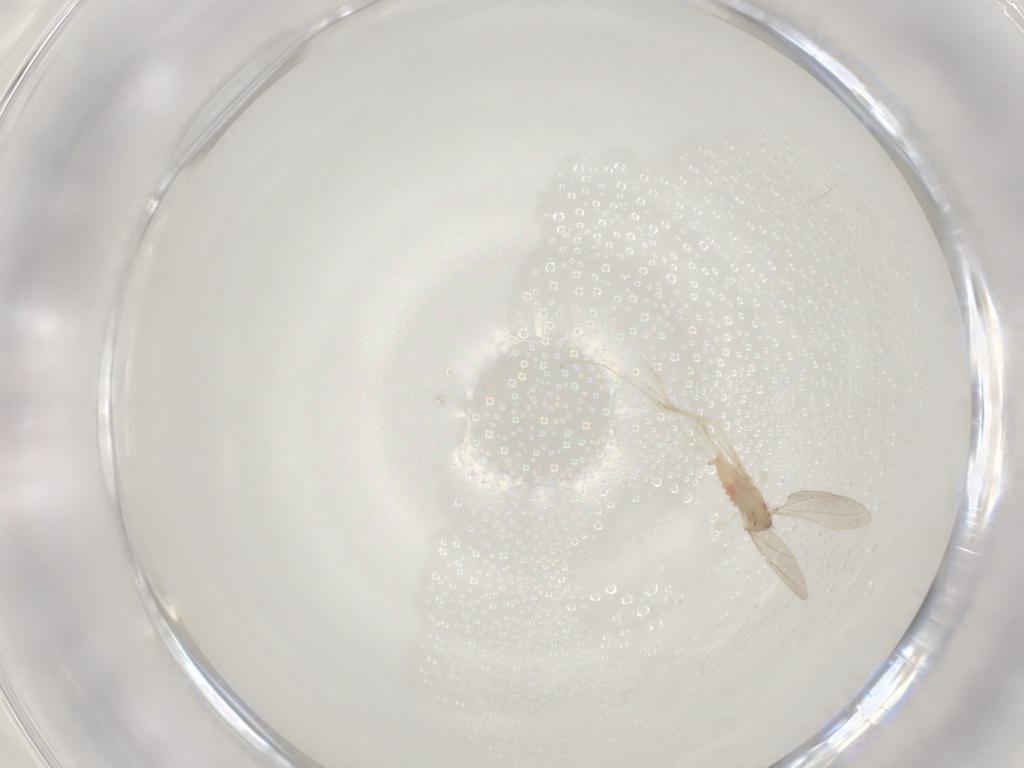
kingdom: Animalia
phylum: Arthropoda
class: Insecta
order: Diptera
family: Cecidomyiidae
